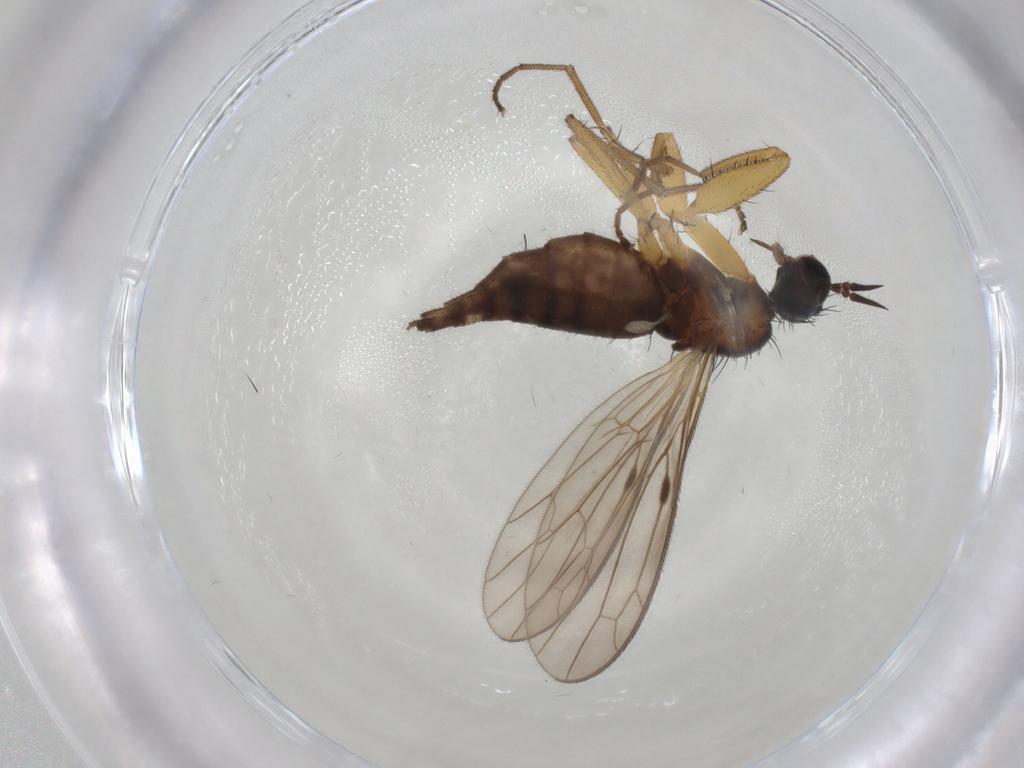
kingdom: Animalia
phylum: Arthropoda
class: Insecta
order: Diptera
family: Empididae
